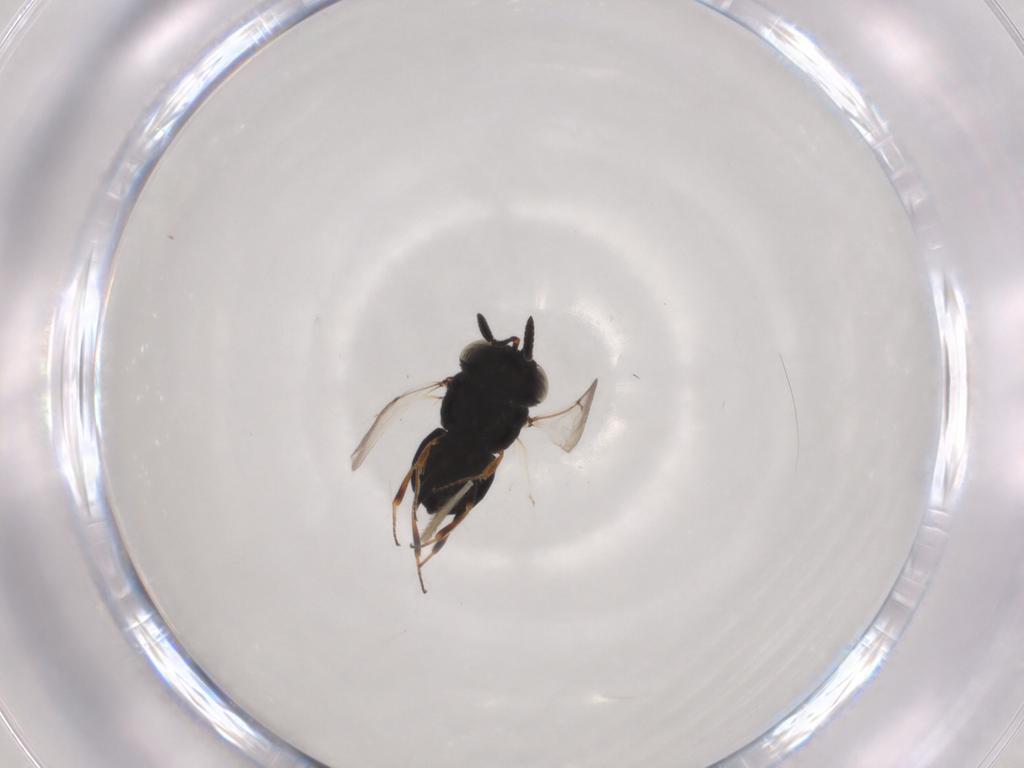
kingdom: Animalia
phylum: Arthropoda
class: Insecta
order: Hymenoptera
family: Scelionidae
